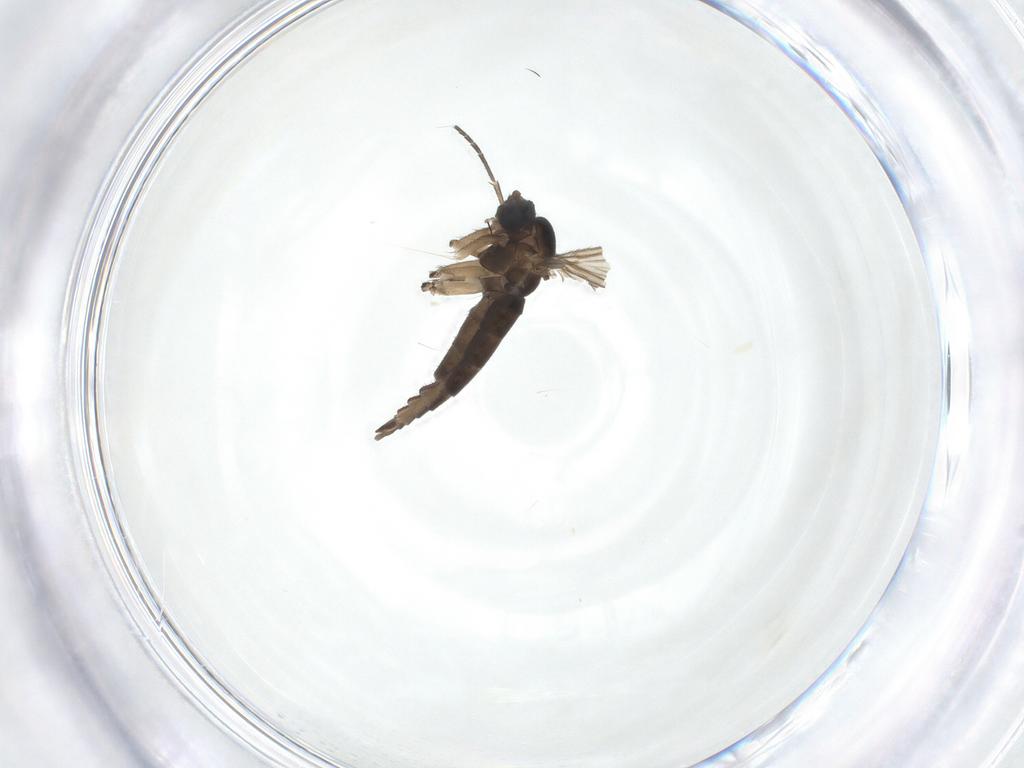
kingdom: Animalia
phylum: Arthropoda
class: Insecta
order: Diptera
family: Sciaridae
